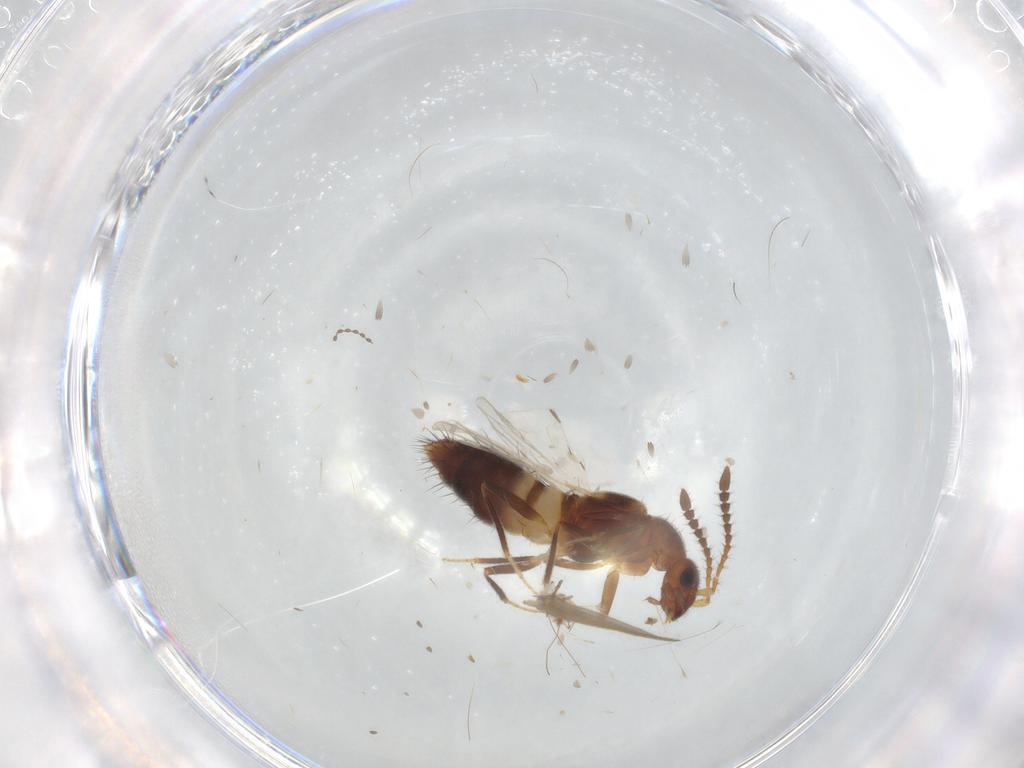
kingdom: Animalia
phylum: Arthropoda
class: Insecta
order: Coleoptera
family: Staphylinidae
